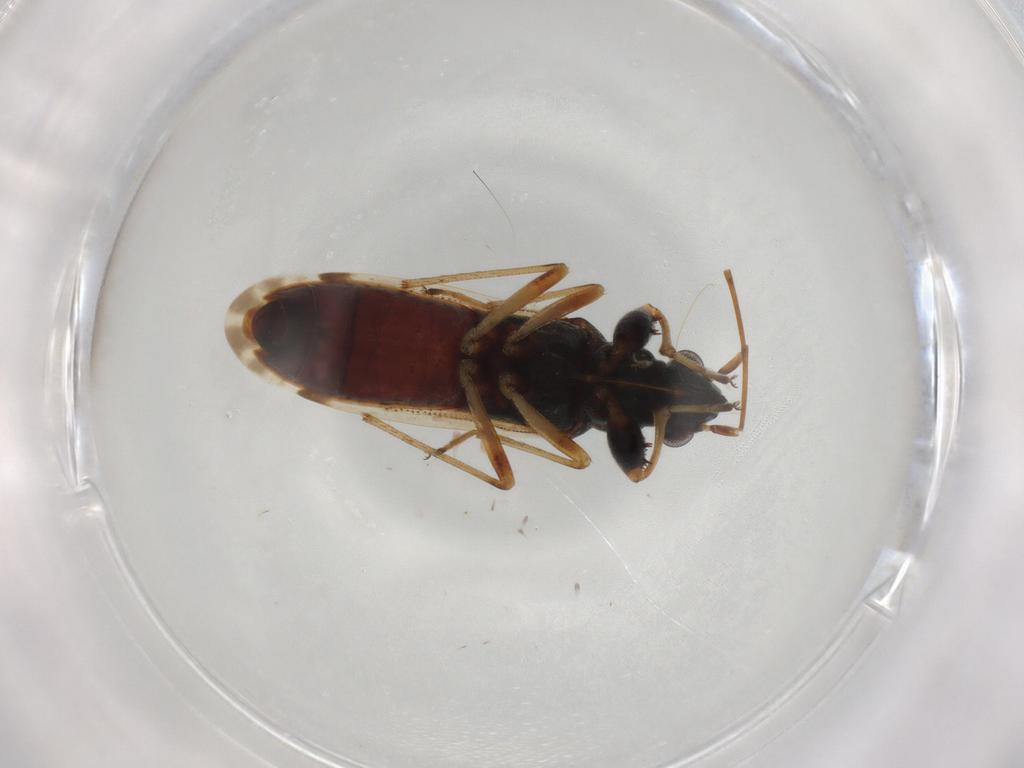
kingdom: Animalia
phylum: Arthropoda
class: Insecta
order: Hemiptera
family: Rhyparochromidae
